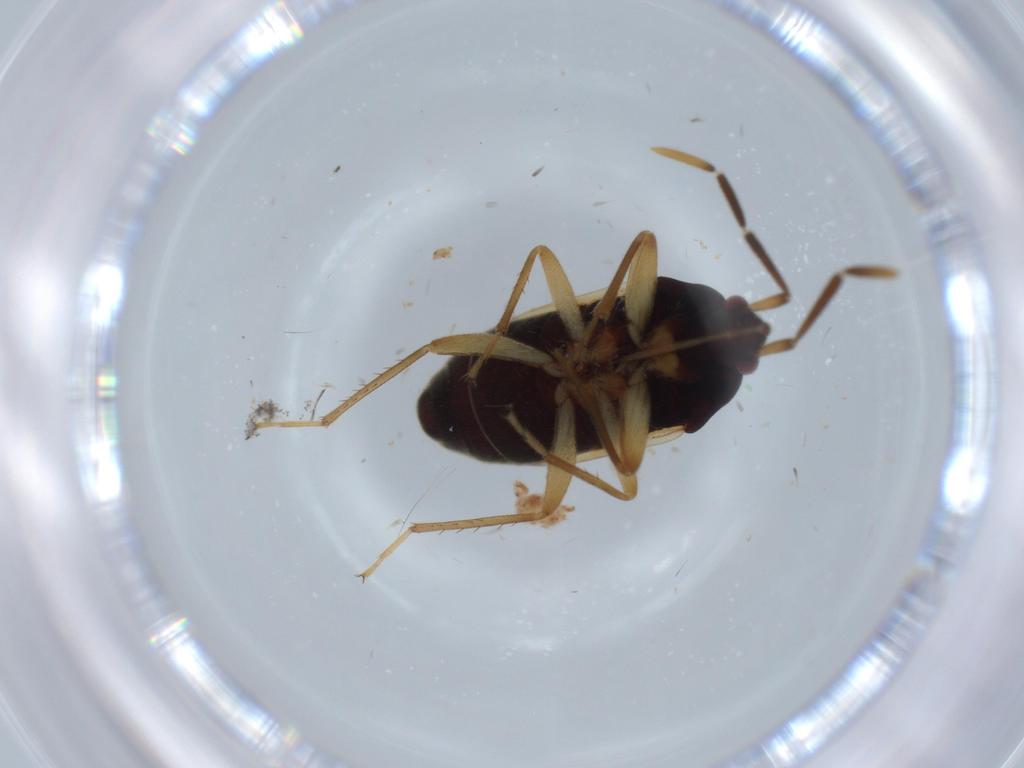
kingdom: Animalia
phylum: Arthropoda
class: Insecta
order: Hemiptera
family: Rhyparochromidae
